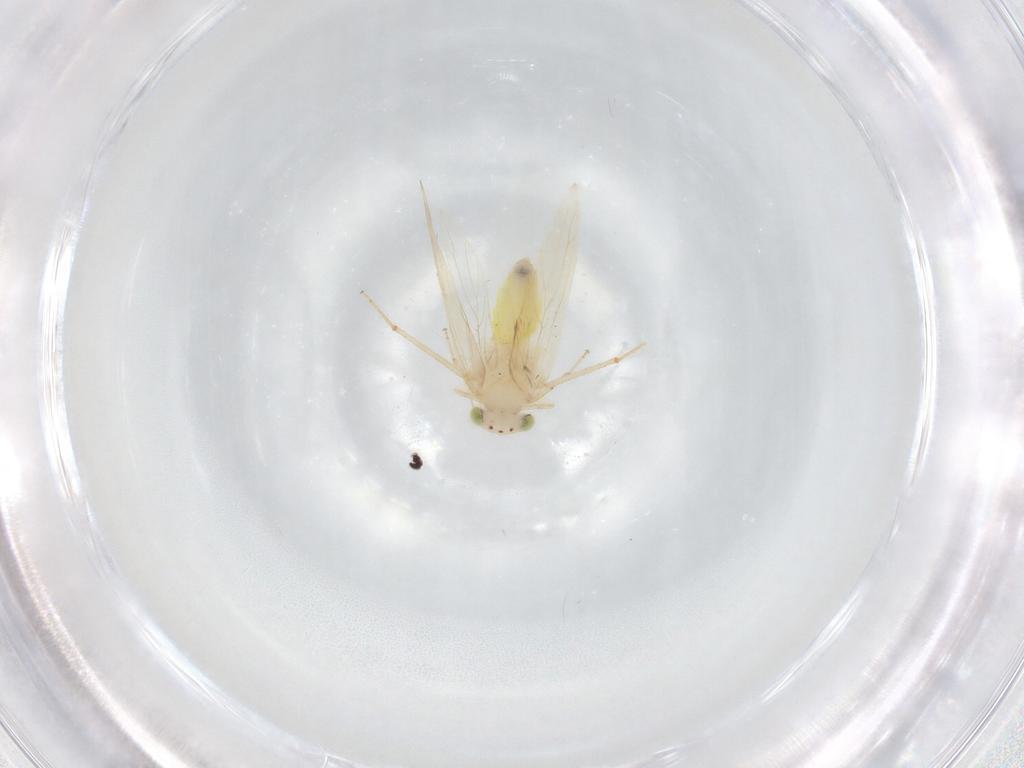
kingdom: Animalia
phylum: Arthropoda
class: Insecta
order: Psocodea
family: Lepidopsocidae
